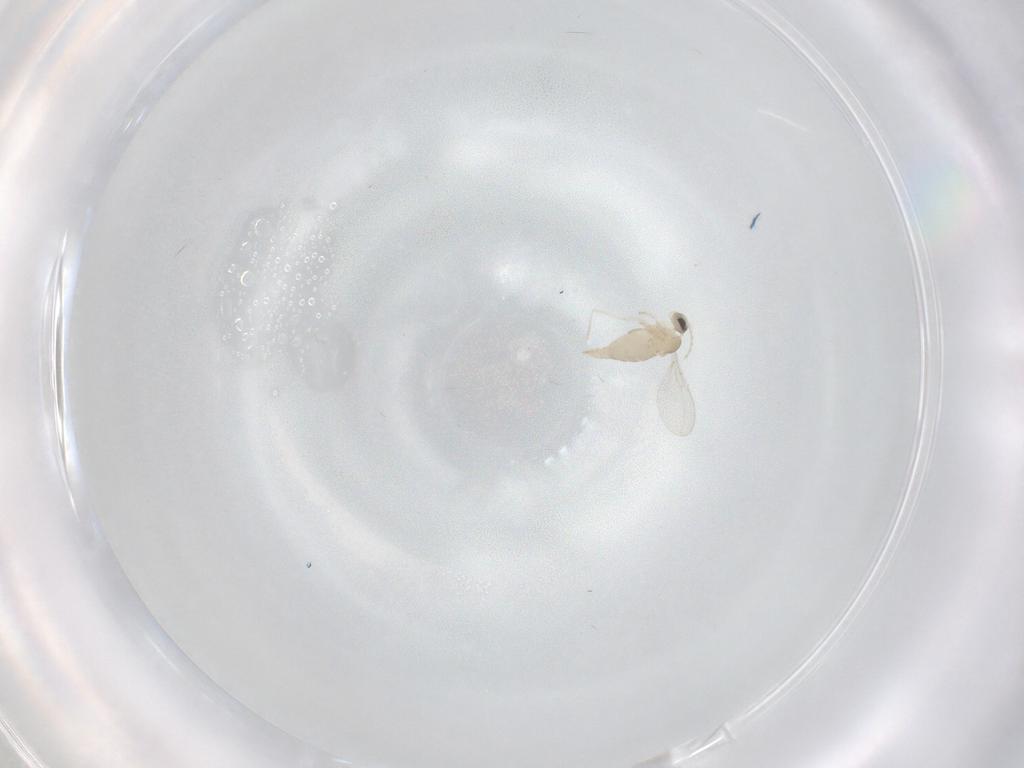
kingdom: Animalia
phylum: Arthropoda
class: Insecta
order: Diptera
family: Cecidomyiidae
